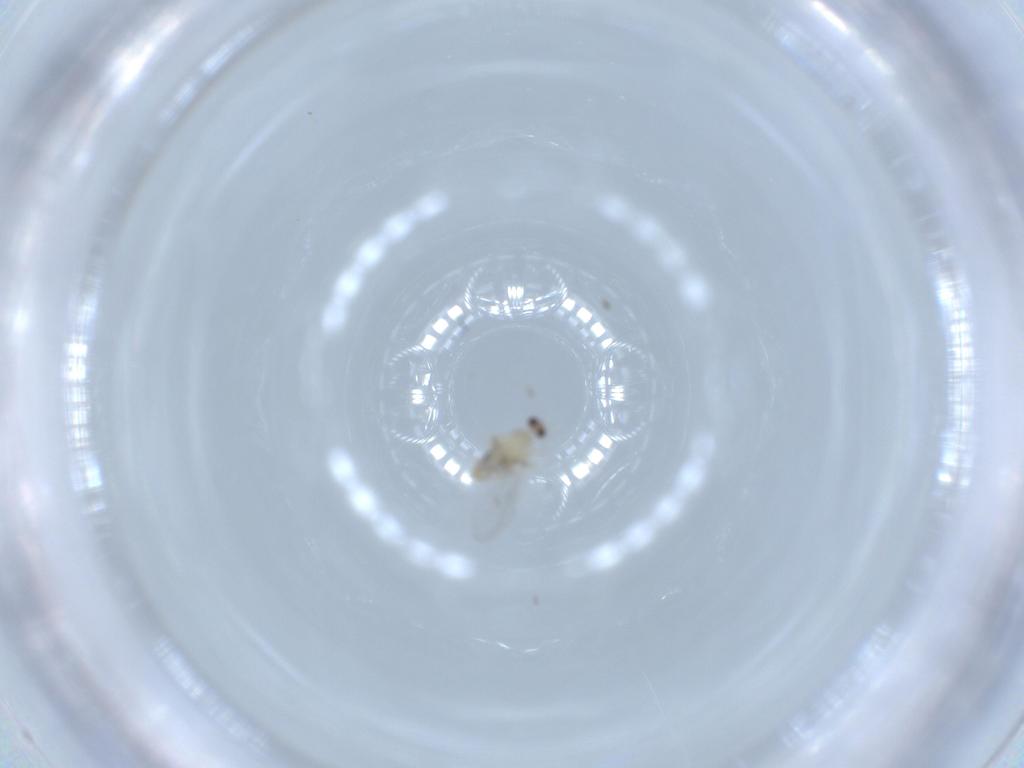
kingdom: Animalia
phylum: Arthropoda
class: Insecta
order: Diptera
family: Cecidomyiidae
